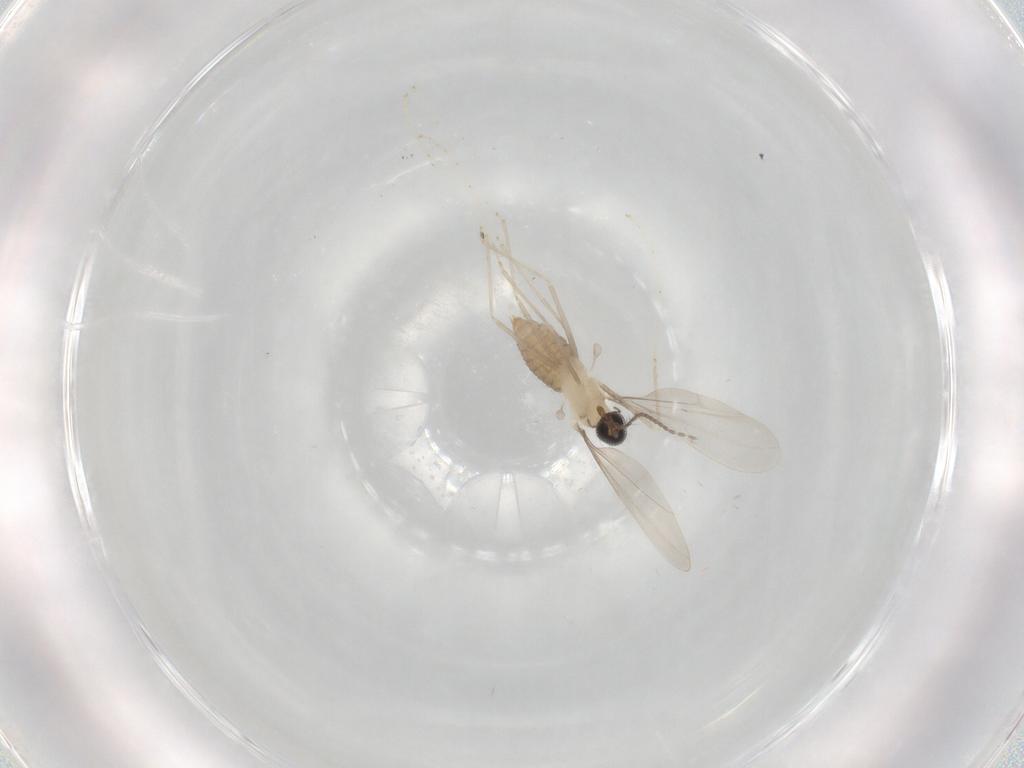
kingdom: Animalia
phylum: Arthropoda
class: Insecta
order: Diptera
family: Cecidomyiidae
